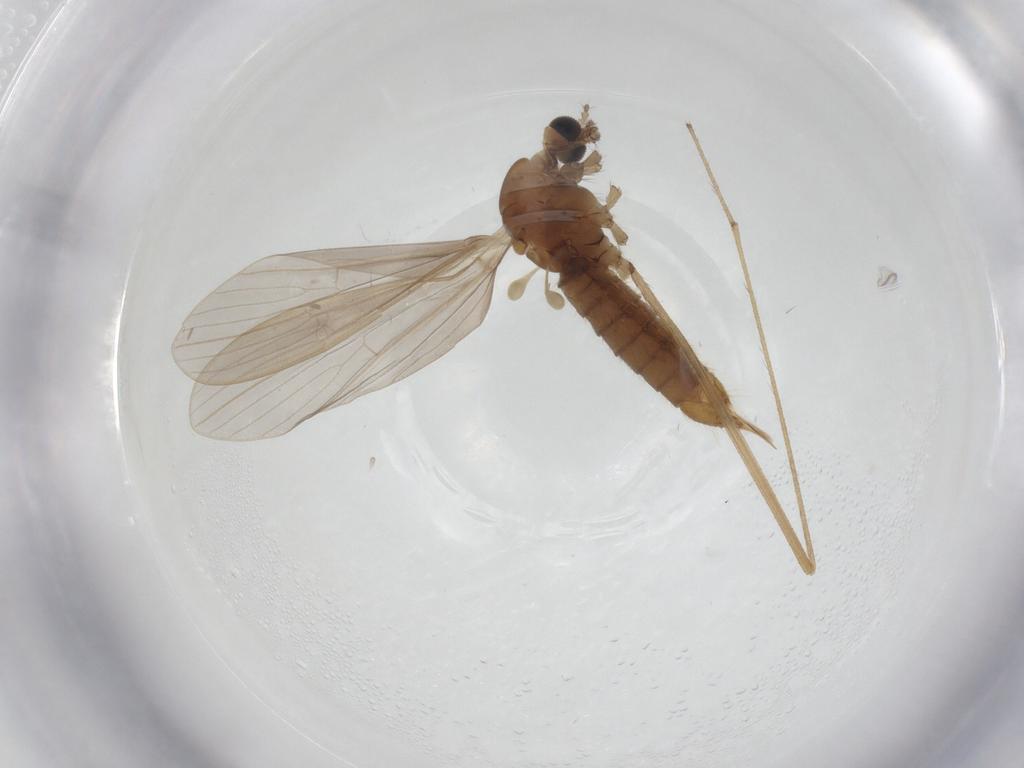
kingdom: Animalia
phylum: Arthropoda
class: Insecta
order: Diptera
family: Limoniidae
